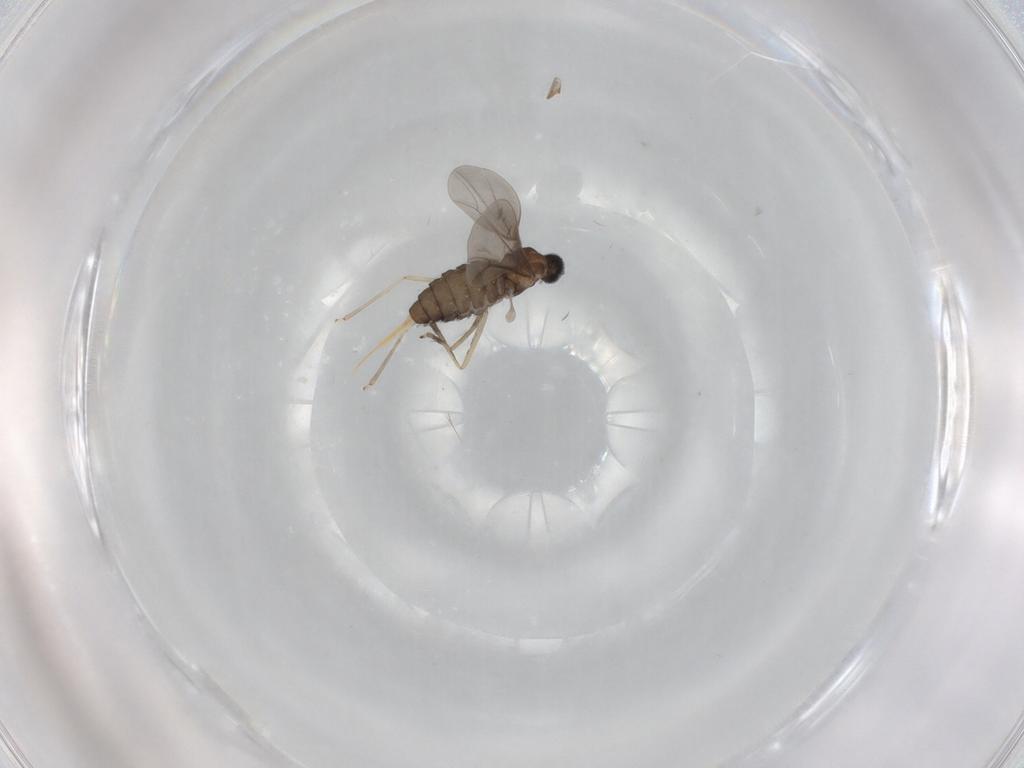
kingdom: Animalia
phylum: Arthropoda
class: Insecta
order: Diptera
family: Cecidomyiidae
